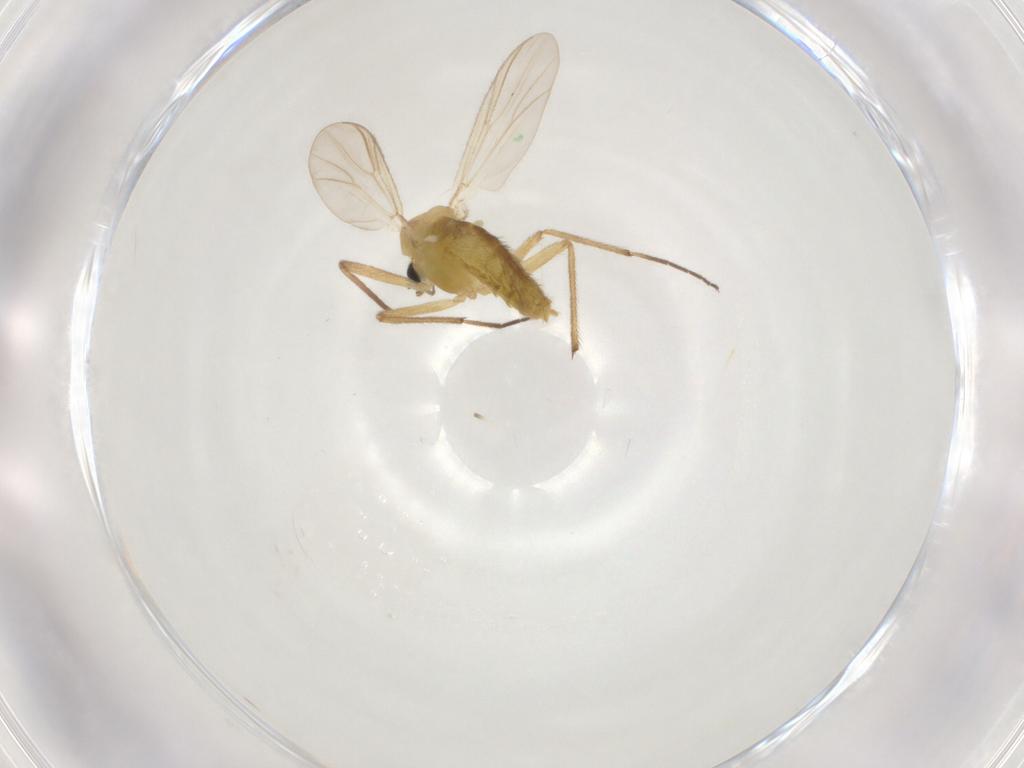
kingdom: Animalia
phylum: Arthropoda
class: Insecta
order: Diptera
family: Chironomidae
